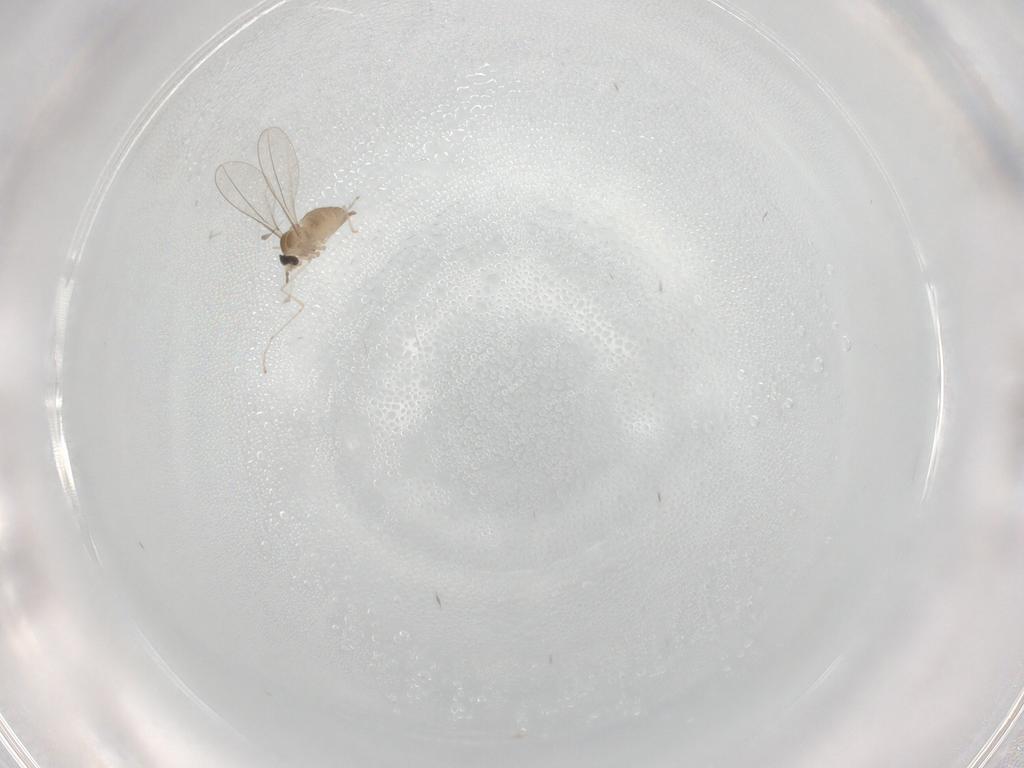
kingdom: Animalia
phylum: Arthropoda
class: Insecta
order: Diptera
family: Cecidomyiidae
